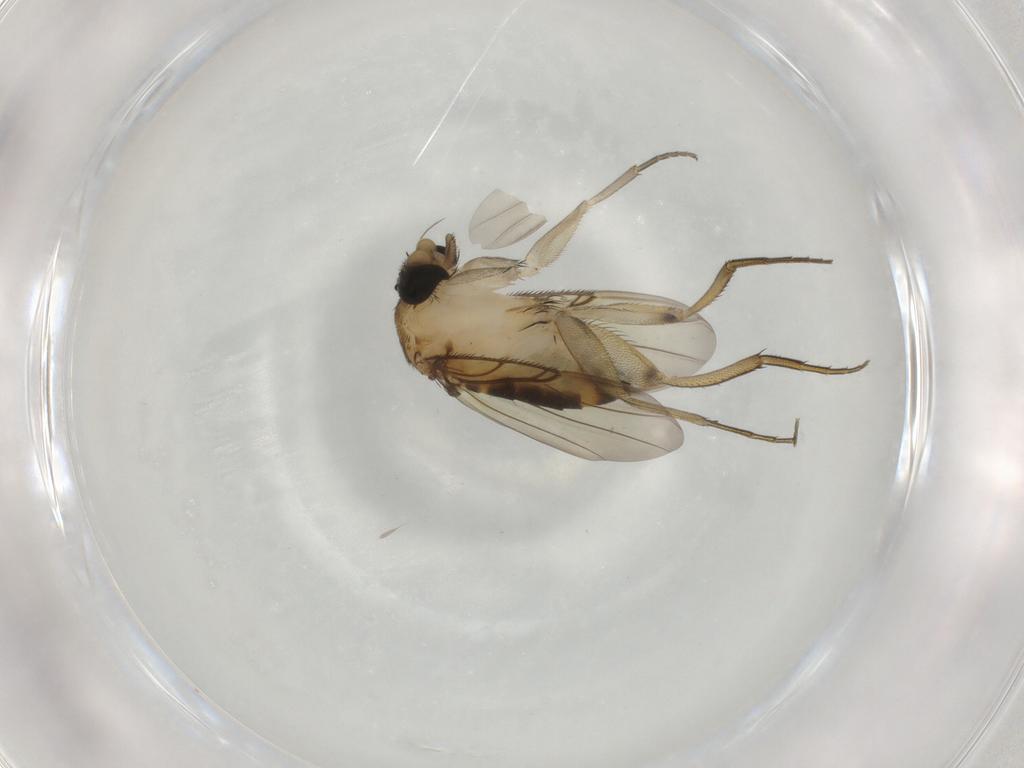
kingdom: Animalia
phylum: Arthropoda
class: Insecta
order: Diptera
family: Phoridae
